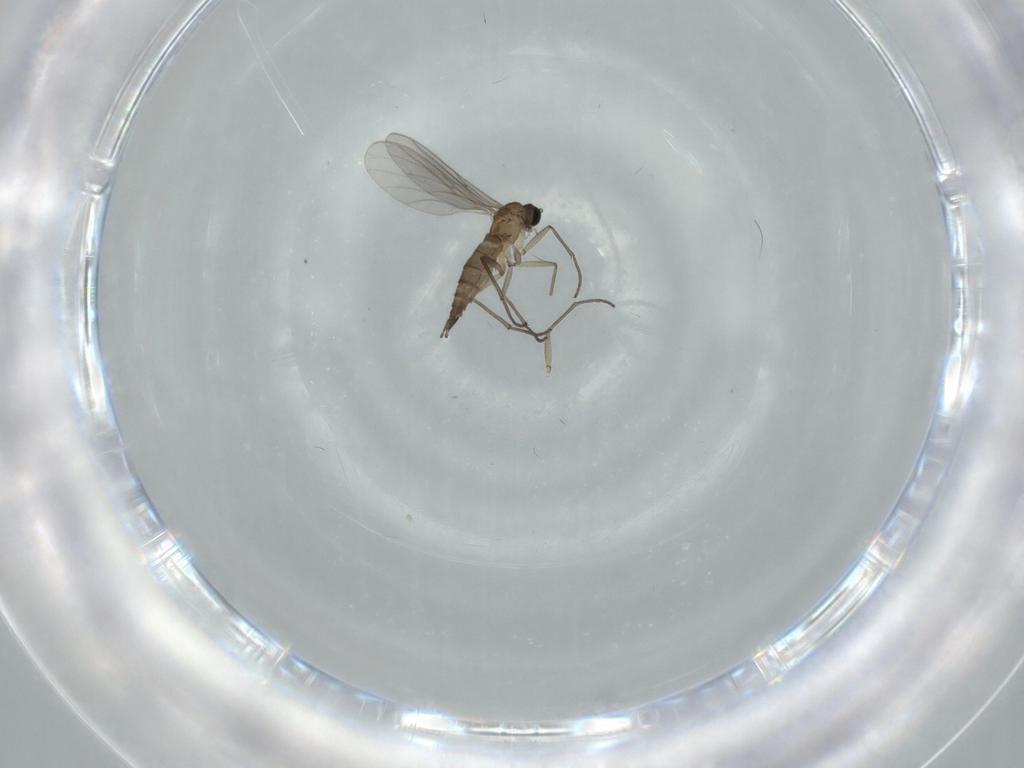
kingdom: Animalia
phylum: Arthropoda
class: Insecta
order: Diptera
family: Sciaridae
